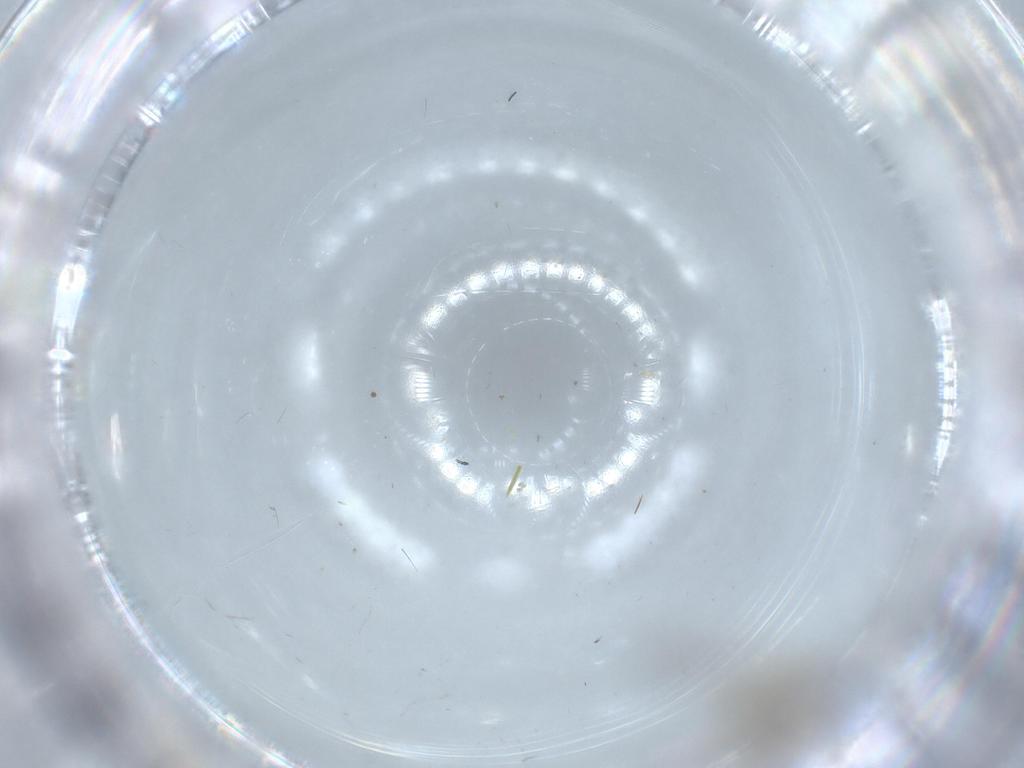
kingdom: Animalia
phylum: Arthropoda
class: Insecta
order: Diptera
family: Cecidomyiidae
